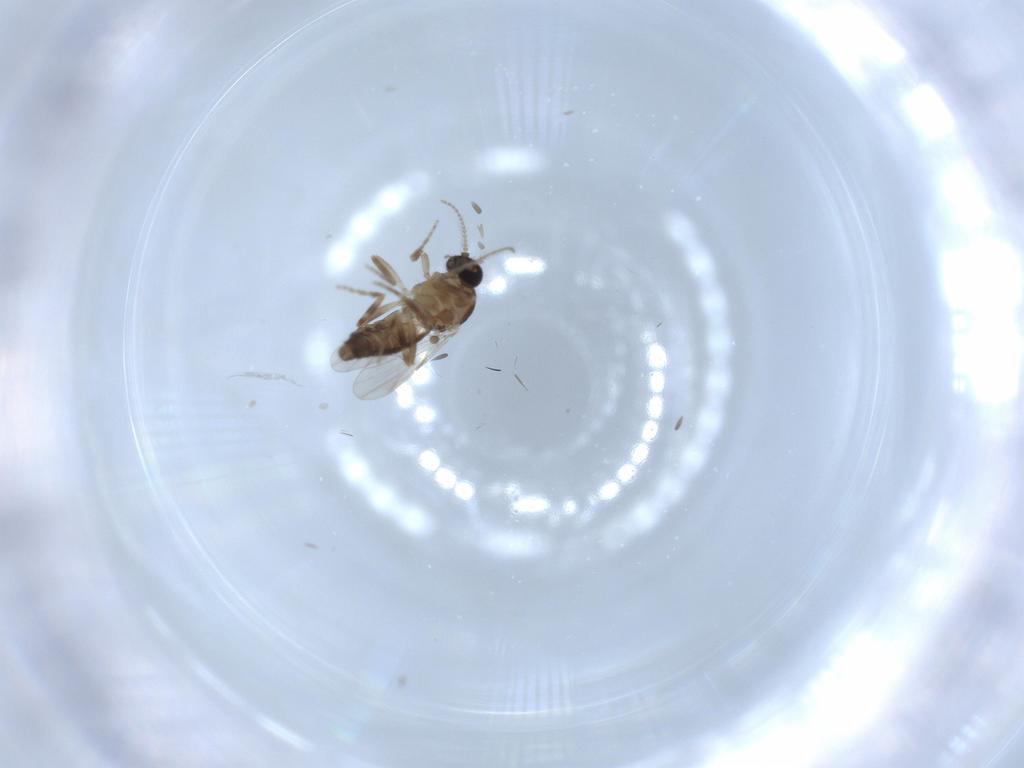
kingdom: Animalia
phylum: Arthropoda
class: Insecta
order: Diptera
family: Ceratopogonidae
